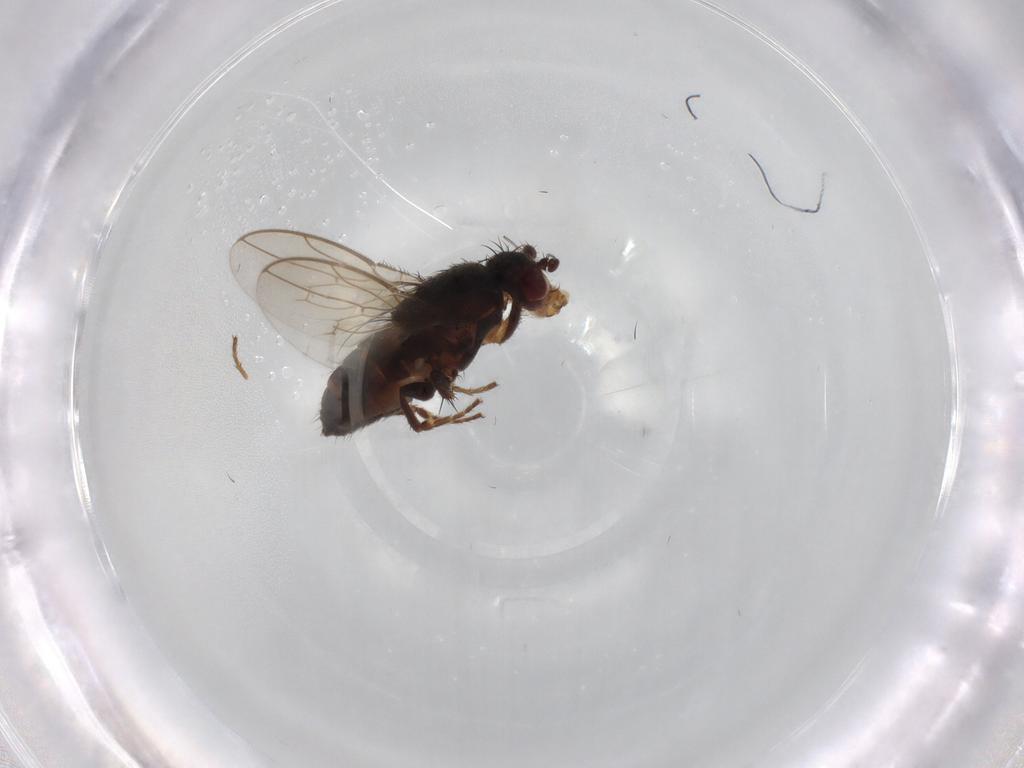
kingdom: Animalia
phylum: Arthropoda
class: Insecta
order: Diptera
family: Sphaeroceridae
